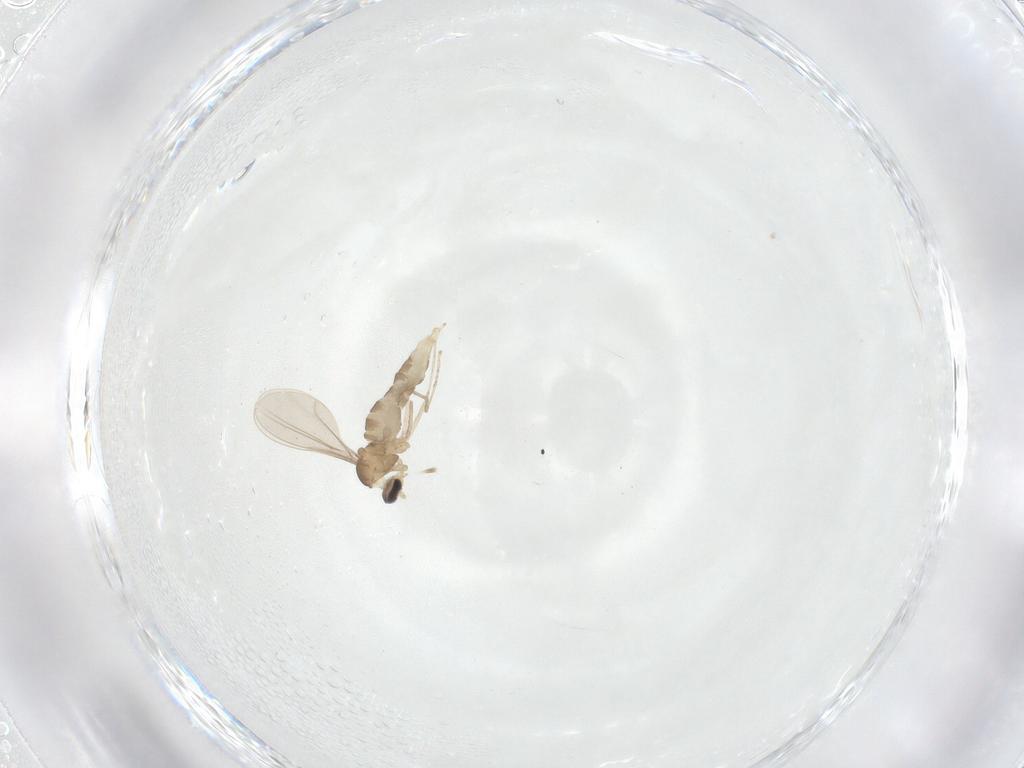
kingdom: Animalia
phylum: Arthropoda
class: Insecta
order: Diptera
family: Cecidomyiidae
